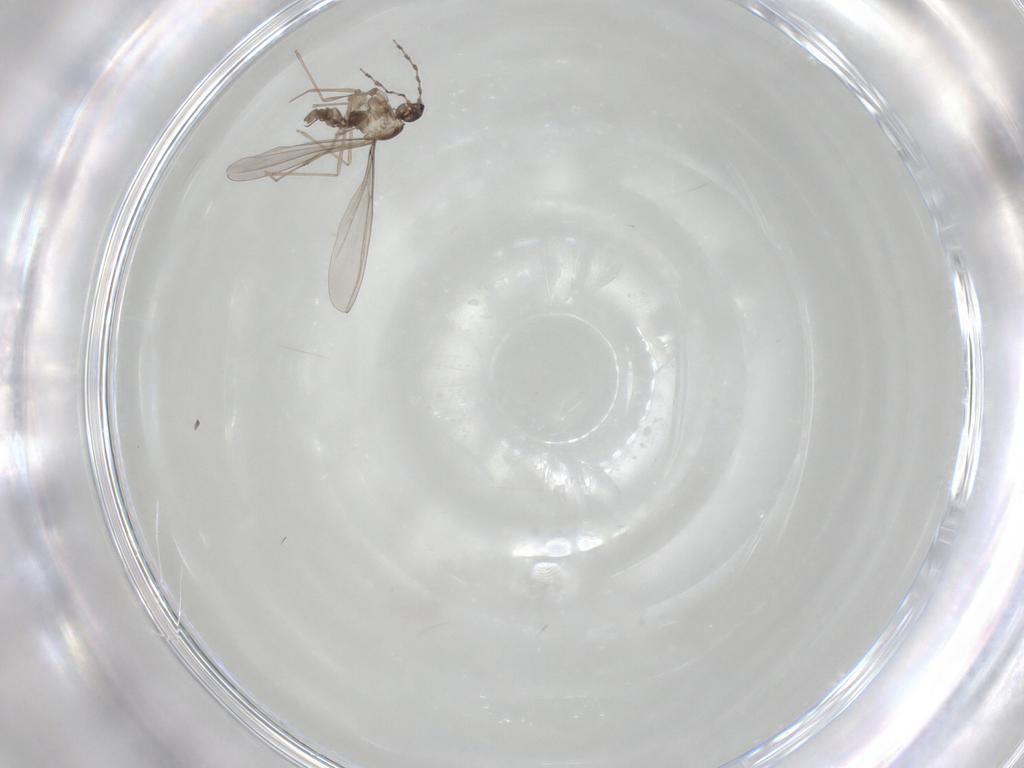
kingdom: Animalia
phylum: Arthropoda
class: Insecta
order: Diptera
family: Cecidomyiidae
